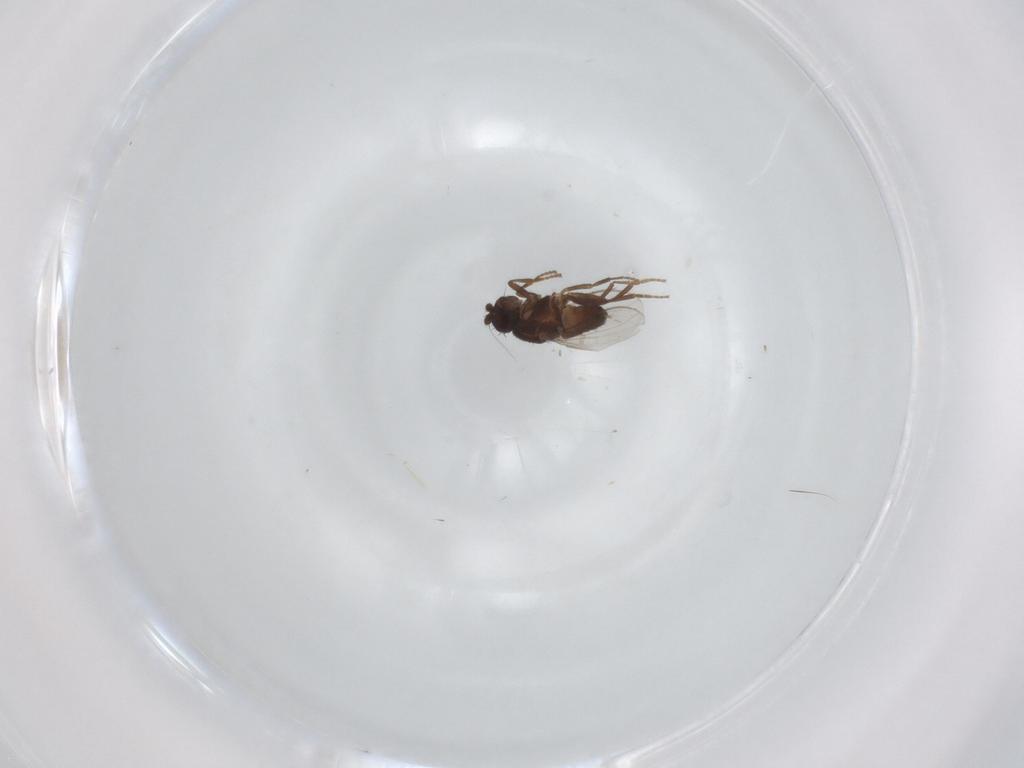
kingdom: Animalia
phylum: Arthropoda
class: Insecta
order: Diptera
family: Sphaeroceridae
